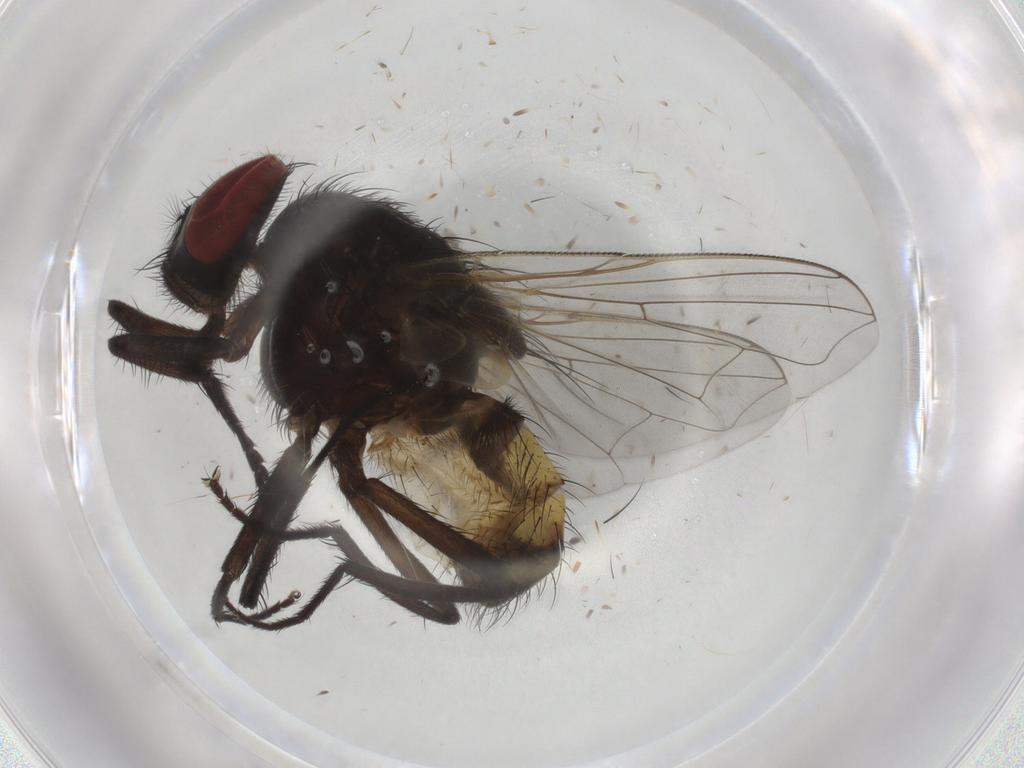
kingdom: Animalia
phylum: Arthropoda
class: Insecta
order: Diptera
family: Muscidae
